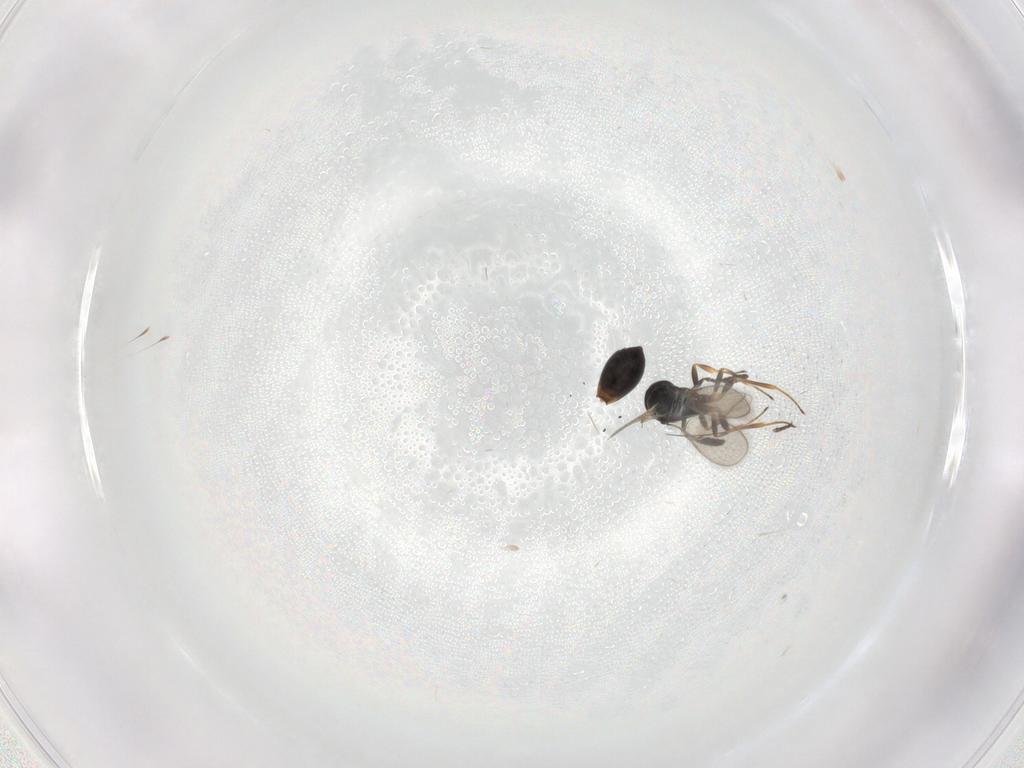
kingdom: Animalia
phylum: Arthropoda
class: Insecta
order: Hymenoptera
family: Scelionidae
